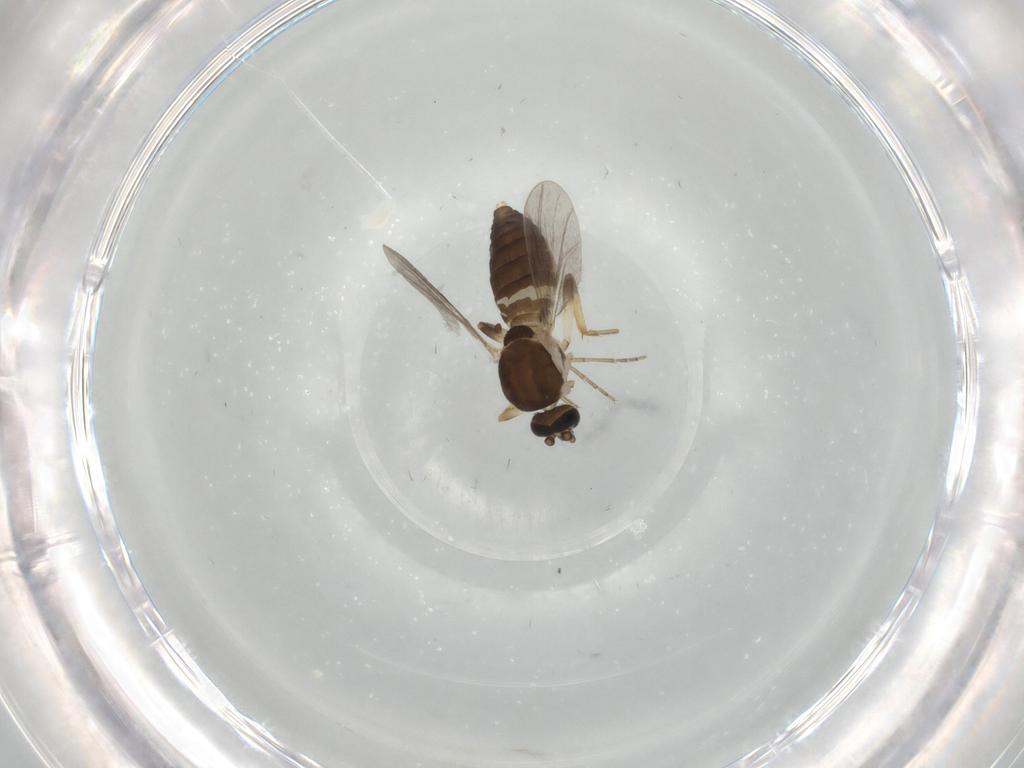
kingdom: Animalia
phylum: Arthropoda
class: Insecta
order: Diptera
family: Ceratopogonidae
